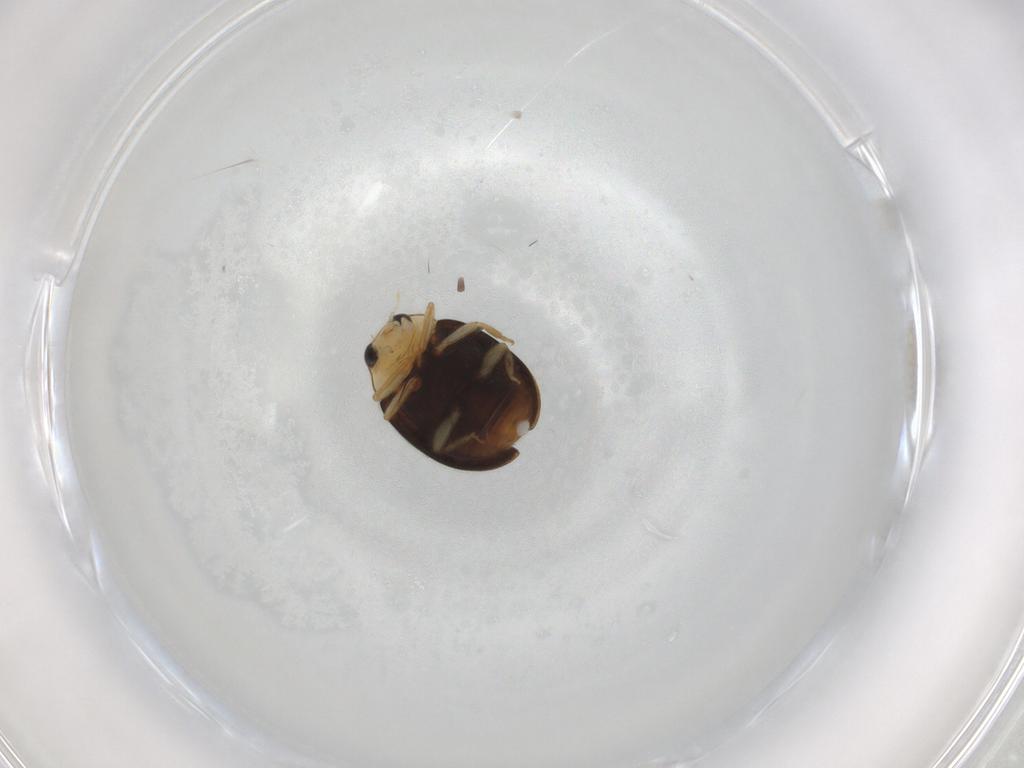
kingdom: Animalia
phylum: Arthropoda
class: Insecta
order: Coleoptera
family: Coccinellidae
